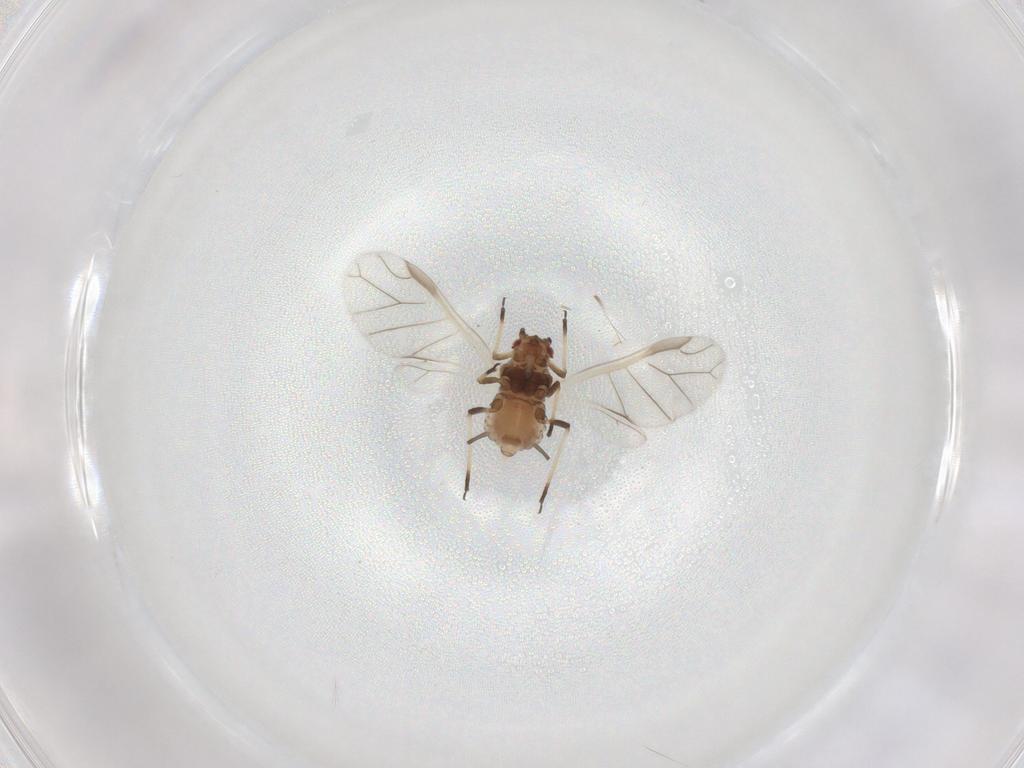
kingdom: Animalia
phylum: Arthropoda
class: Insecta
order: Hemiptera
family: Aphididae
